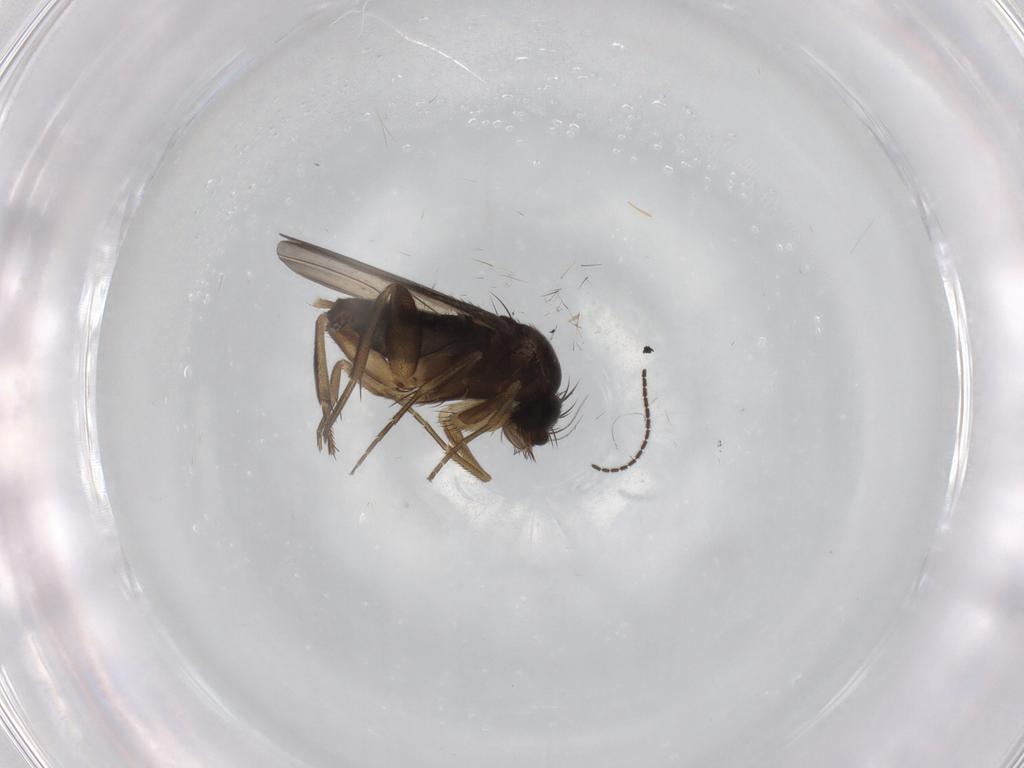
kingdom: Animalia
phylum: Arthropoda
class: Insecta
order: Diptera
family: Phoridae
